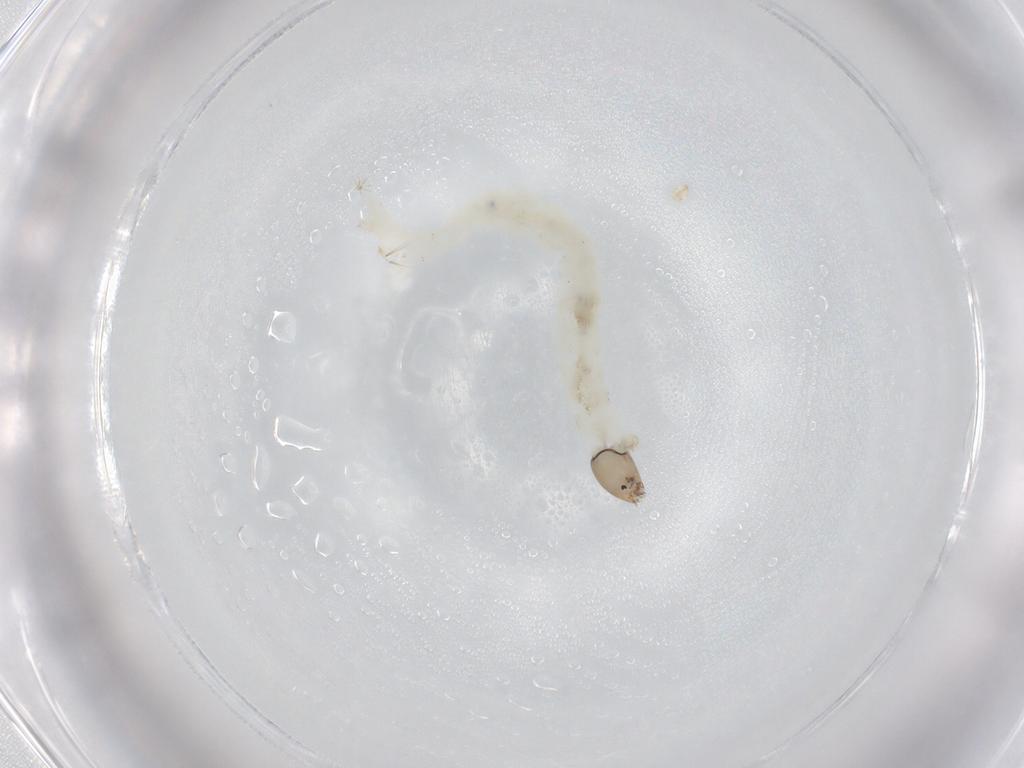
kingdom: Animalia
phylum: Arthropoda
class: Insecta
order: Diptera
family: Chironomidae
